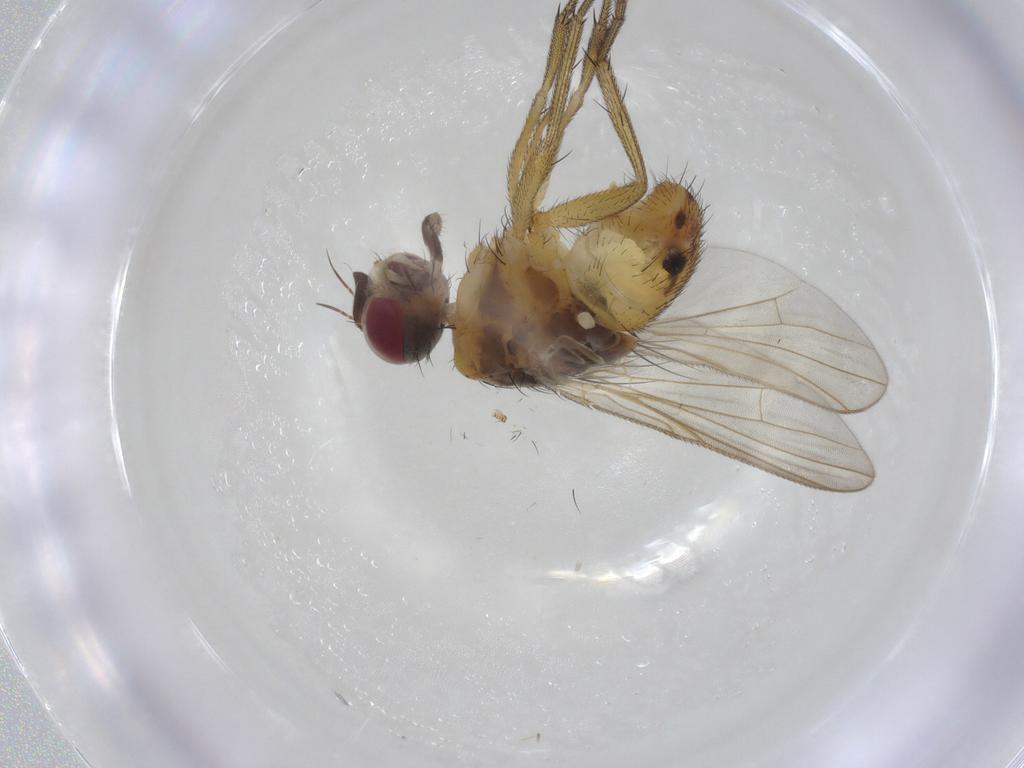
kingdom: Animalia
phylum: Arthropoda
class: Insecta
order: Diptera
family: Muscidae
